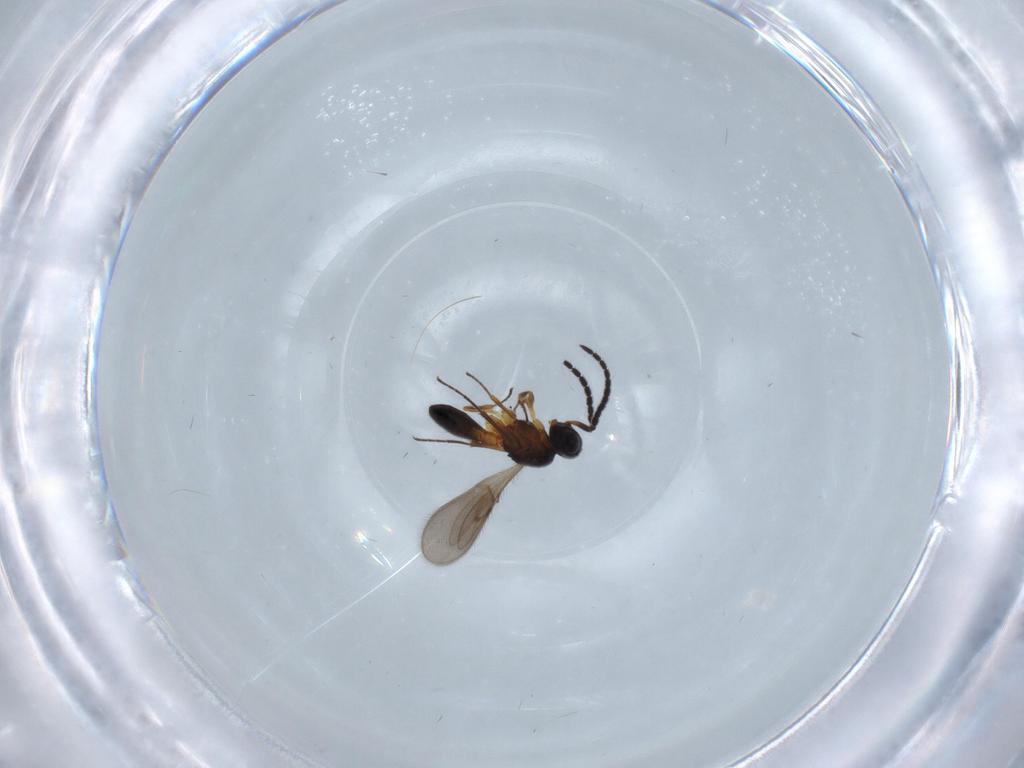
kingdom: Animalia
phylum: Arthropoda
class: Insecta
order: Hymenoptera
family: Scelionidae
